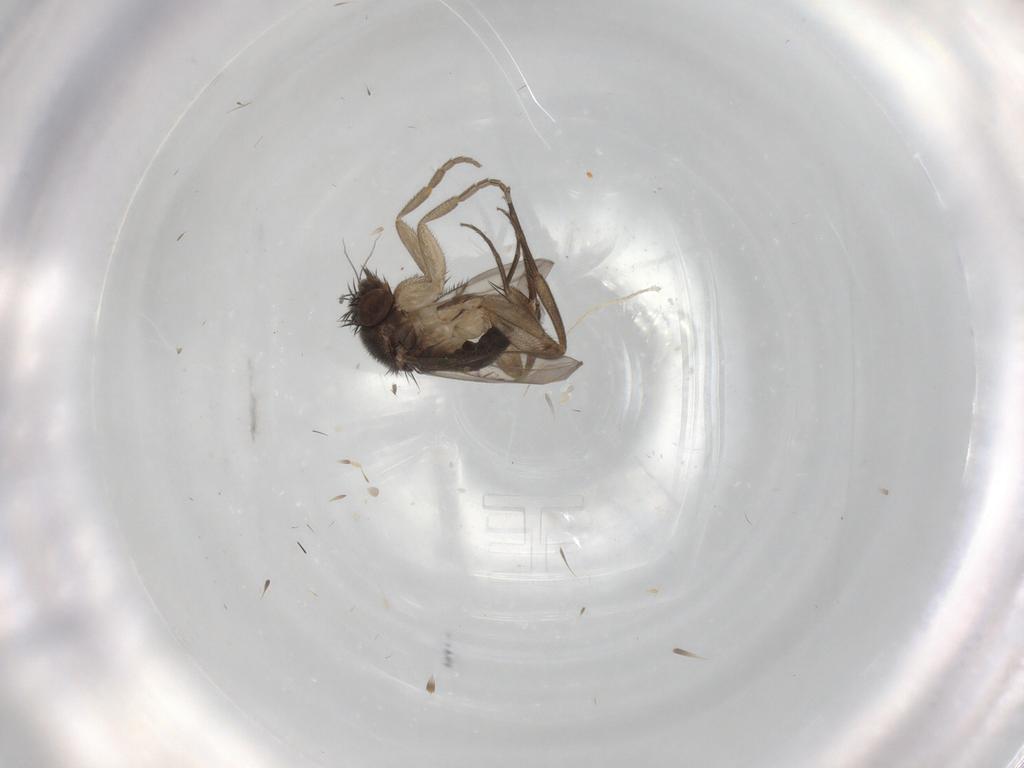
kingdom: Animalia
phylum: Arthropoda
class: Insecta
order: Diptera
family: Phoridae
